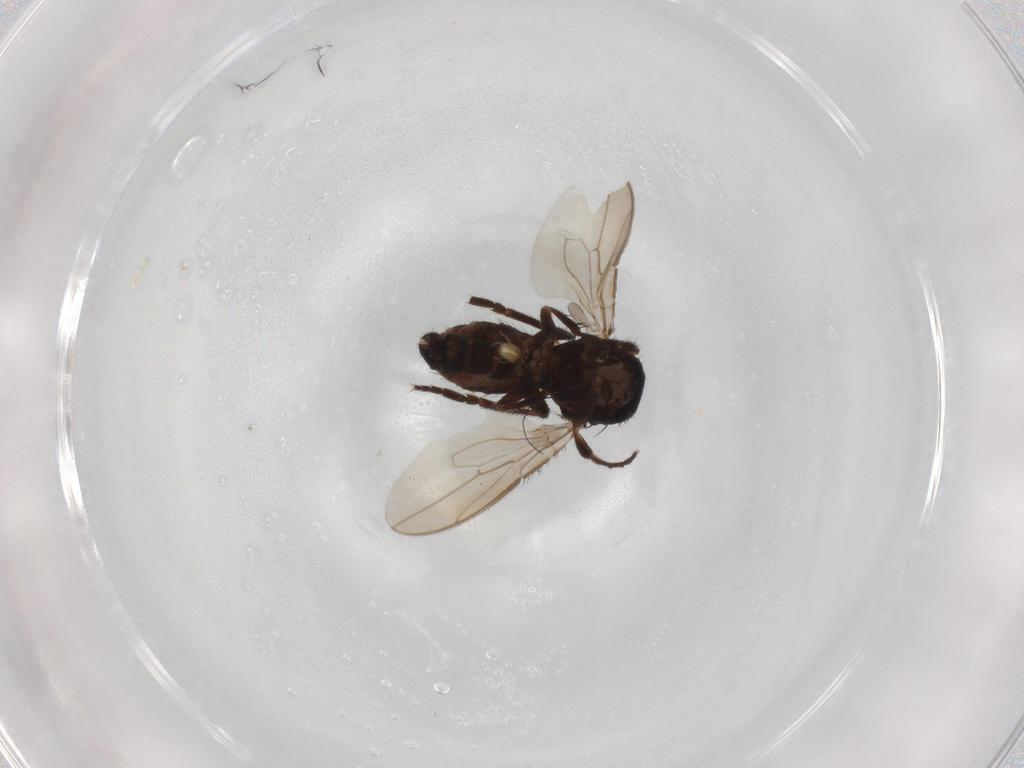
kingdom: Animalia
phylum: Arthropoda
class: Insecta
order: Diptera
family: Sphaeroceridae
